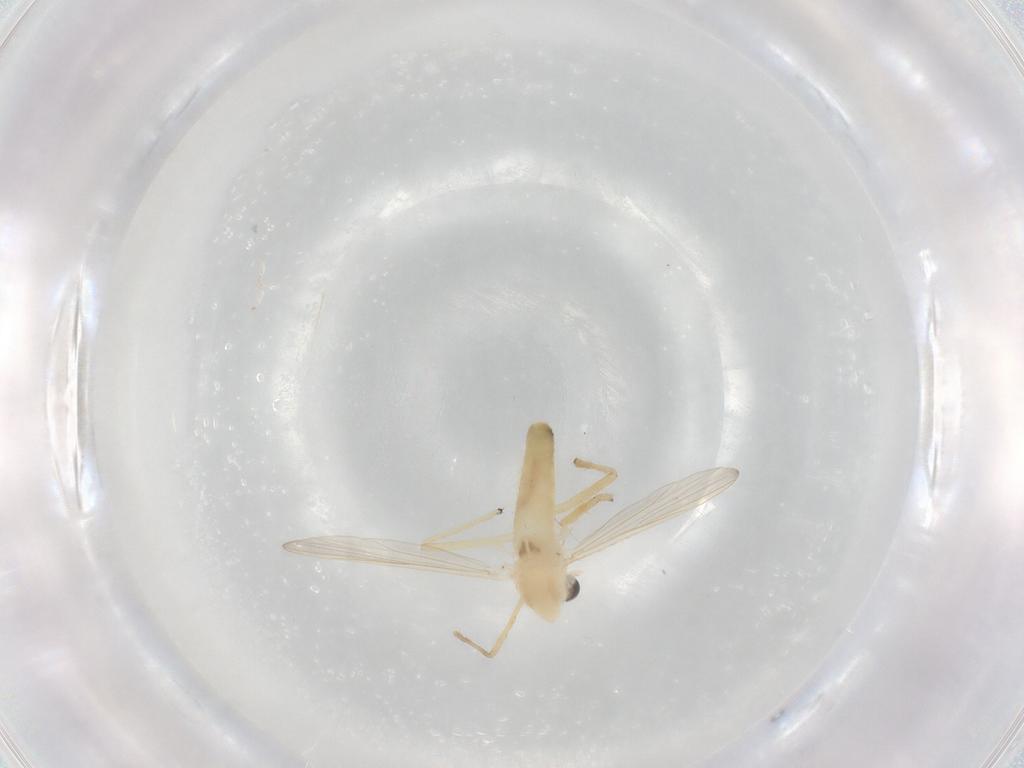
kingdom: Animalia
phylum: Arthropoda
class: Insecta
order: Diptera
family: Chironomidae
